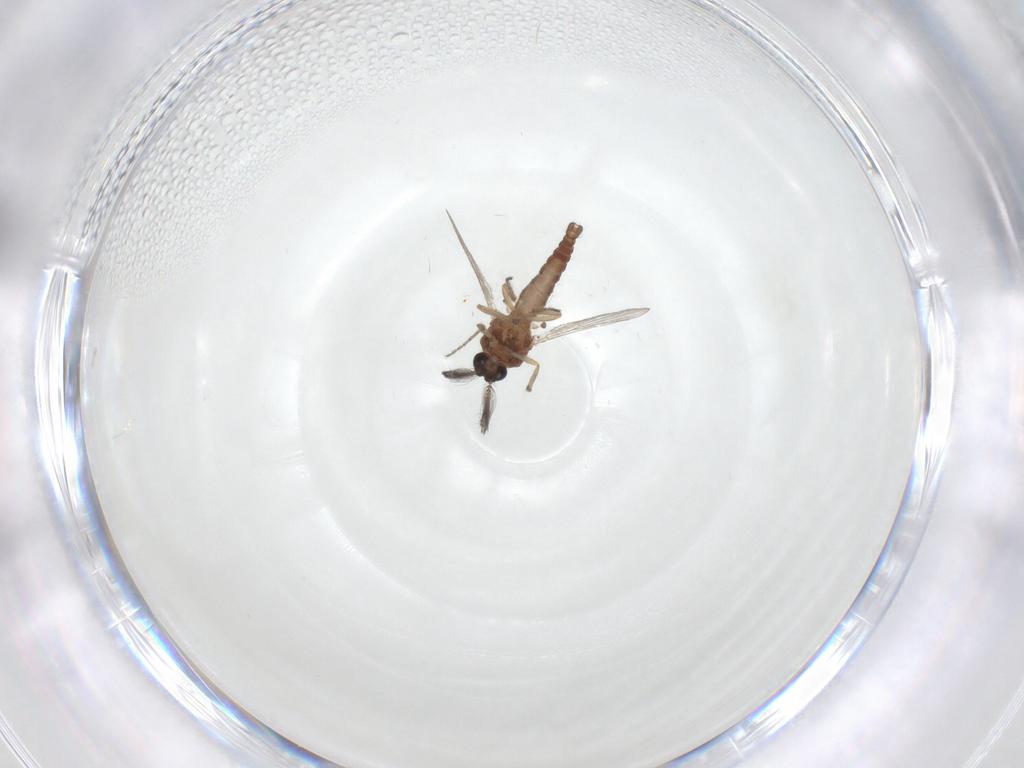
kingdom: Animalia
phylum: Arthropoda
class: Insecta
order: Diptera
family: Ceratopogonidae
